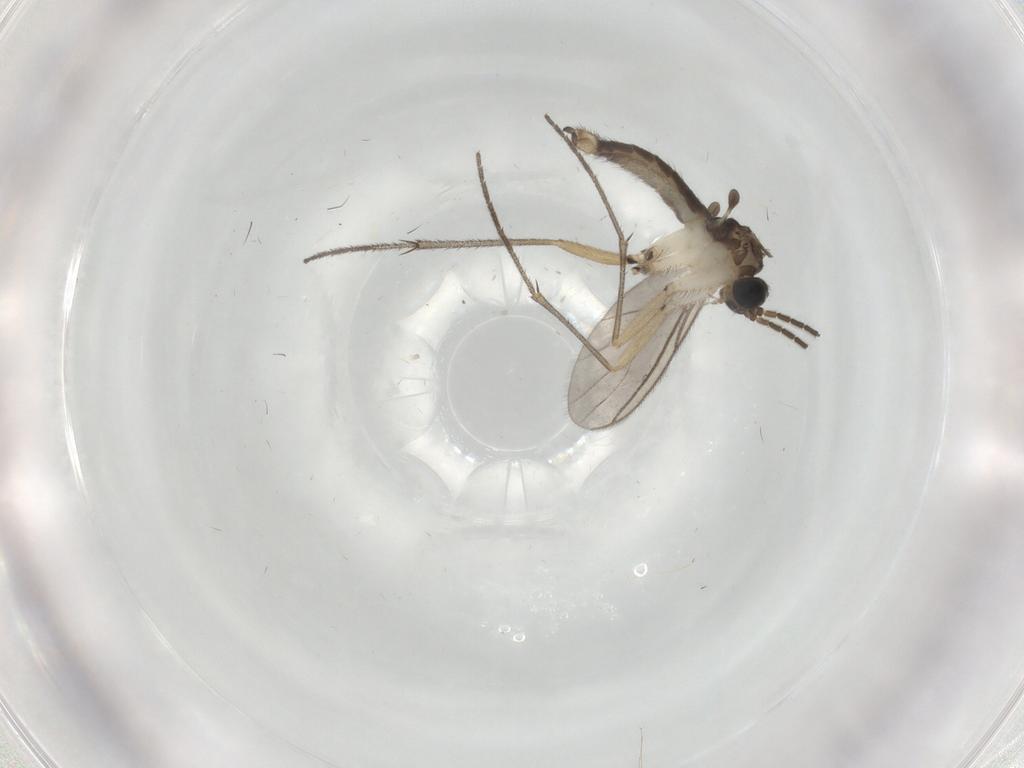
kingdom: Animalia
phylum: Arthropoda
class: Insecta
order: Diptera
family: Sciaridae
